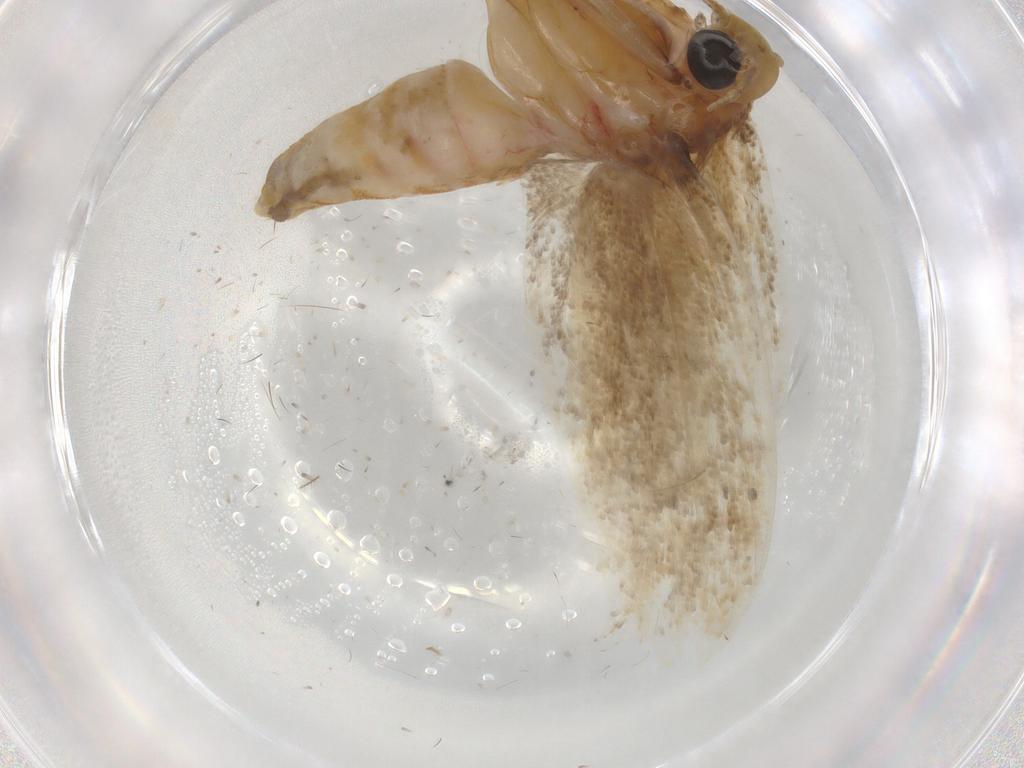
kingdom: Animalia
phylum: Arthropoda
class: Insecta
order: Lepidoptera
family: Oecophoridae
